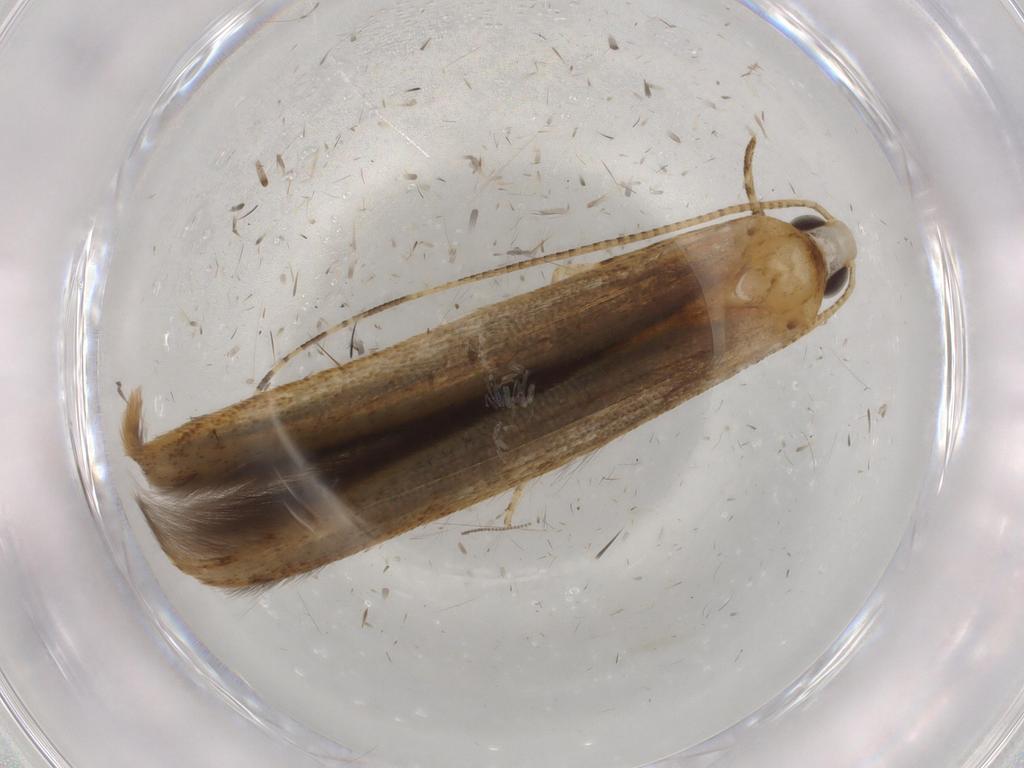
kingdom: Animalia
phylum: Arthropoda
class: Insecta
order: Lepidoptera
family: Batrachedridae
